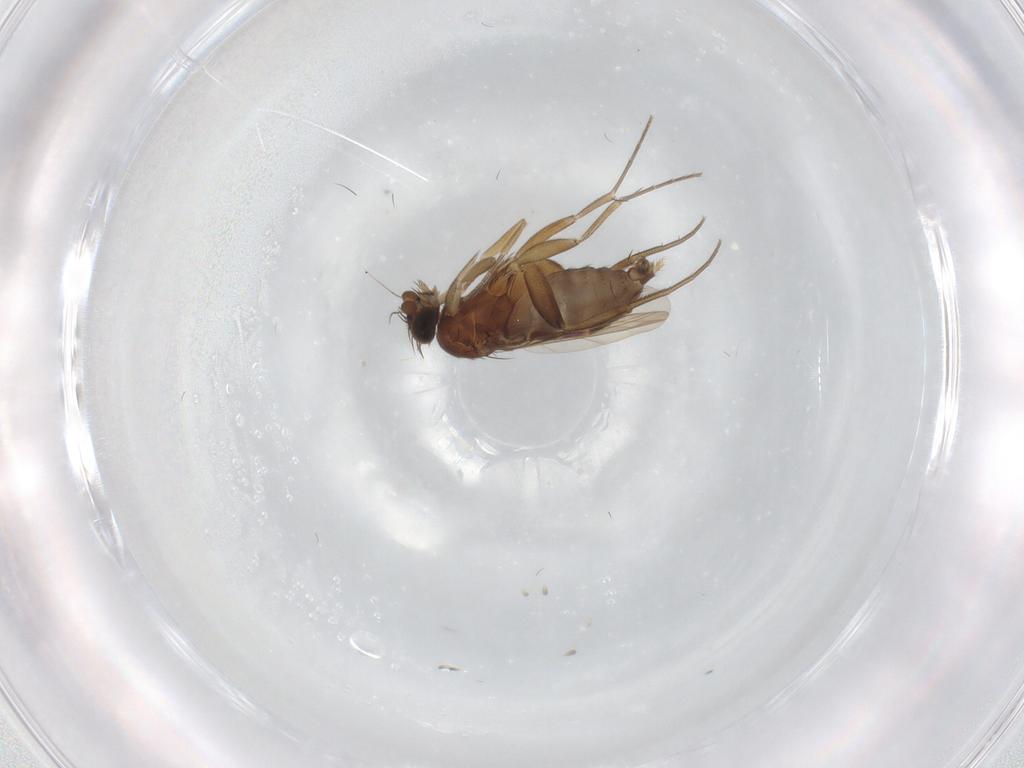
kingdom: Animalia
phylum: Arthropoda
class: Insecta
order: Diptera
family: Phoridae
